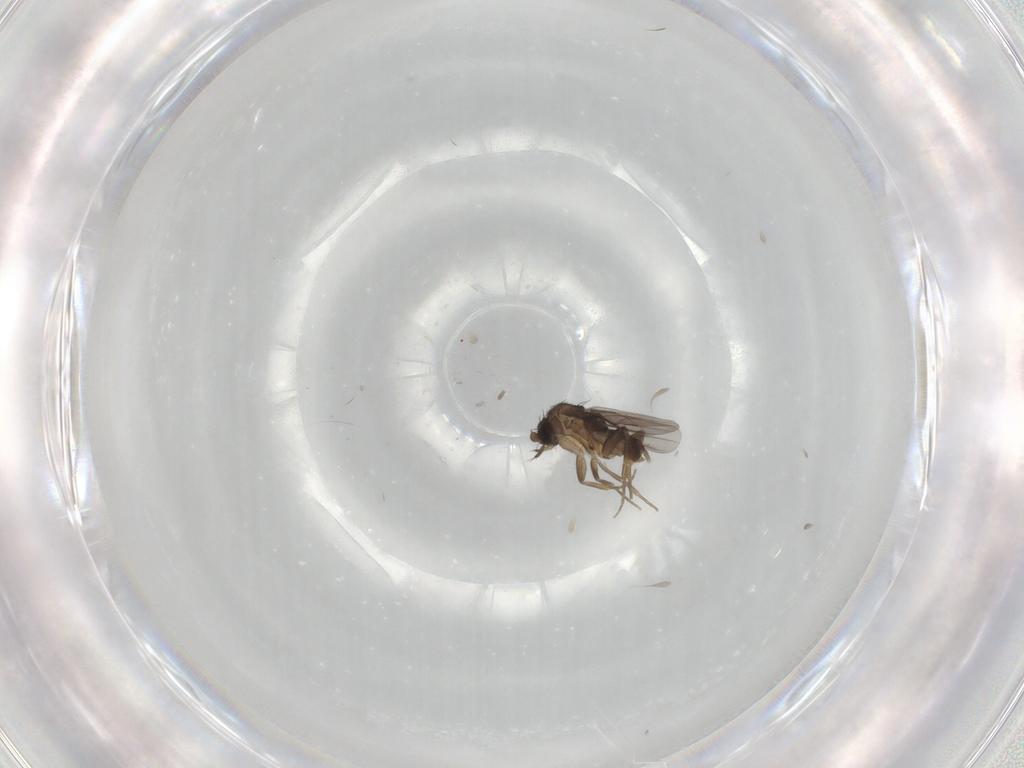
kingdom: Animalia
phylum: Arthropoda
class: Insecta
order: Diptera
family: Phoridae
